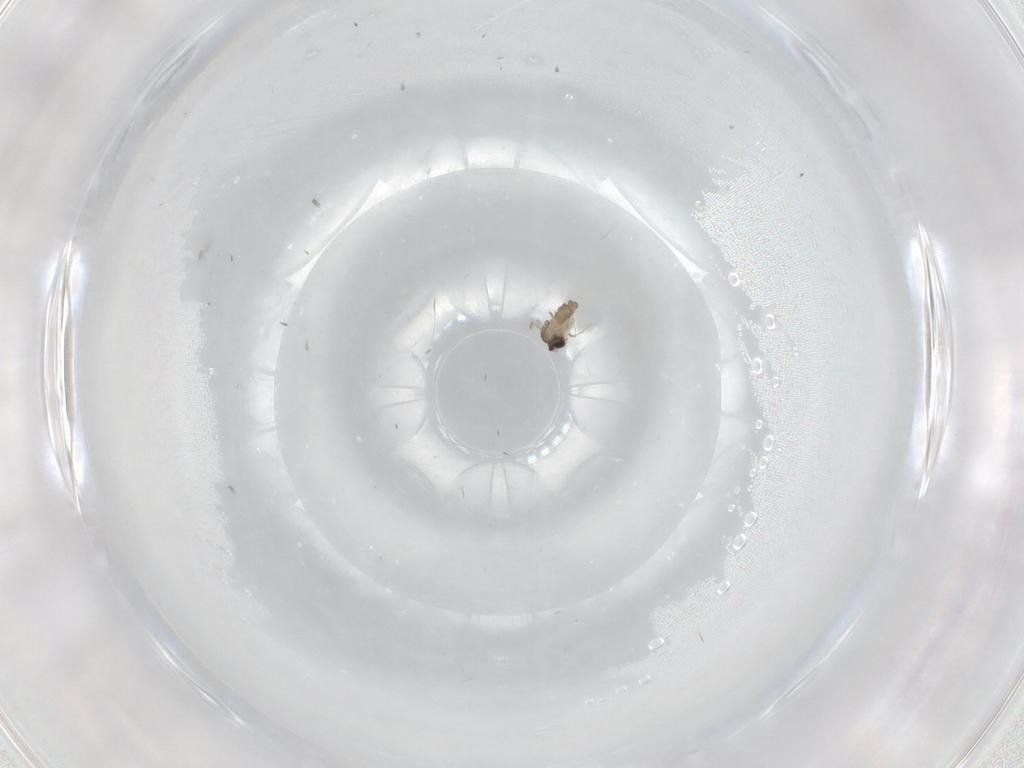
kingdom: Animalia
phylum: Arthropoda
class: Insecta
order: Diptera
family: Cecidomyiidae
